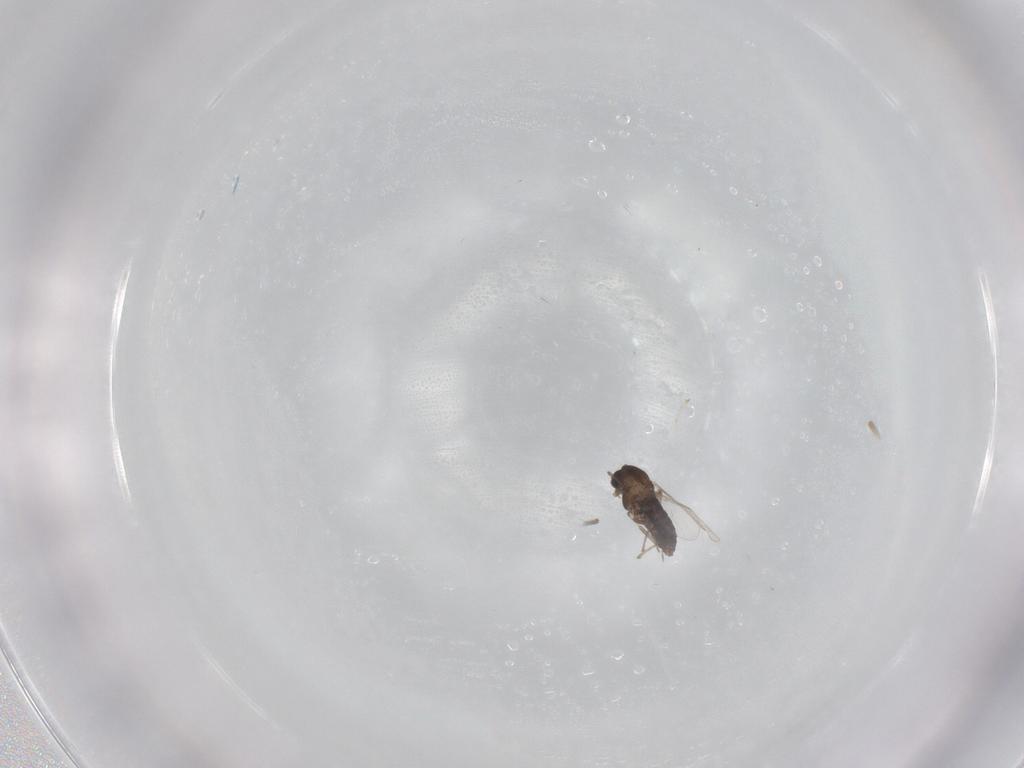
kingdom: Animalia
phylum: Arthropoda
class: Insecta
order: Diptera
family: Chironomidae
